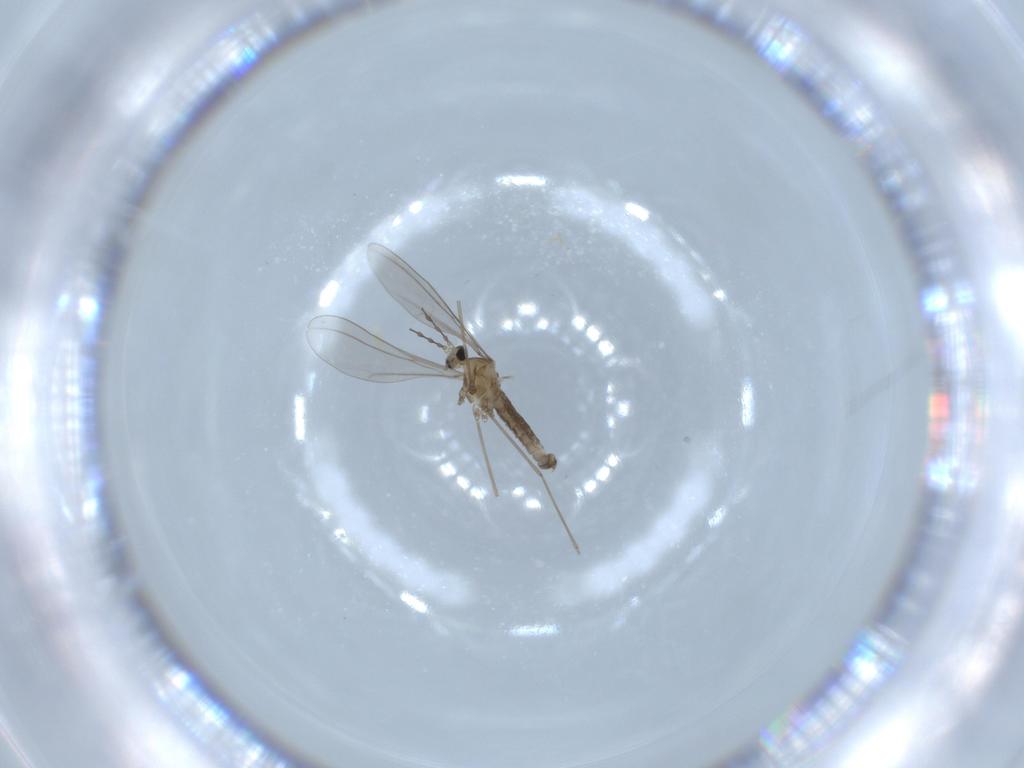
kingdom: Animalia
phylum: Arthropoda
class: Insecta
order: Diptera
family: Cecidomyiidae
